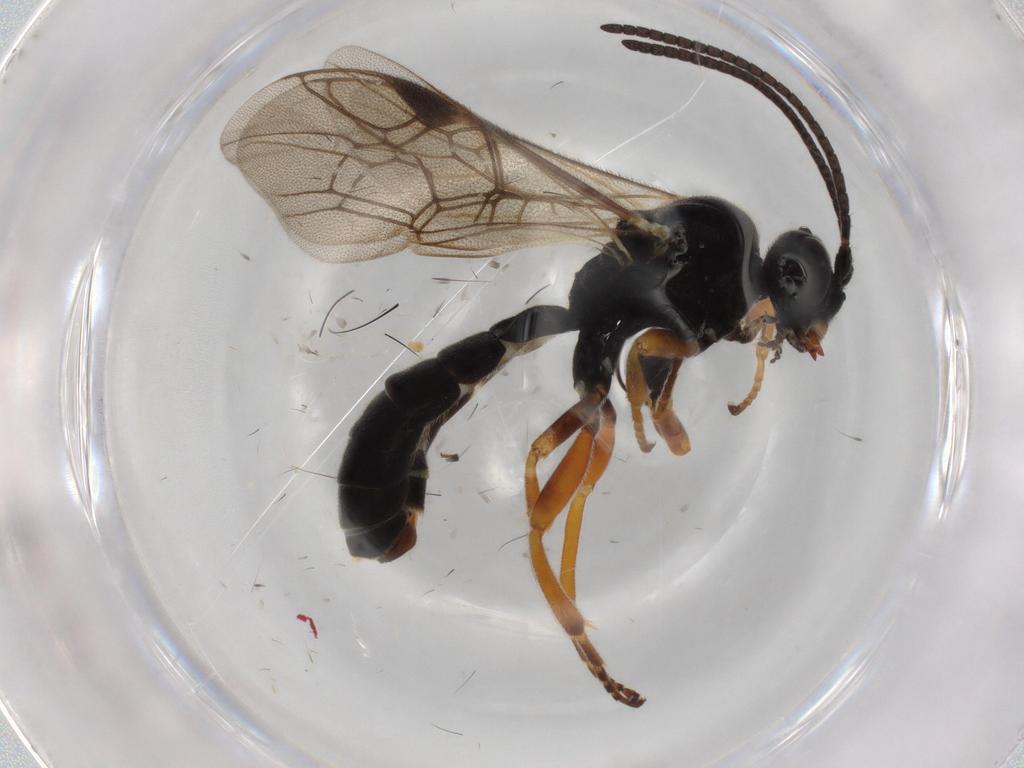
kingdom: Animalia
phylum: Arthropoda
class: Insecta
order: Hymenoptera
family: Ichneumonidae
